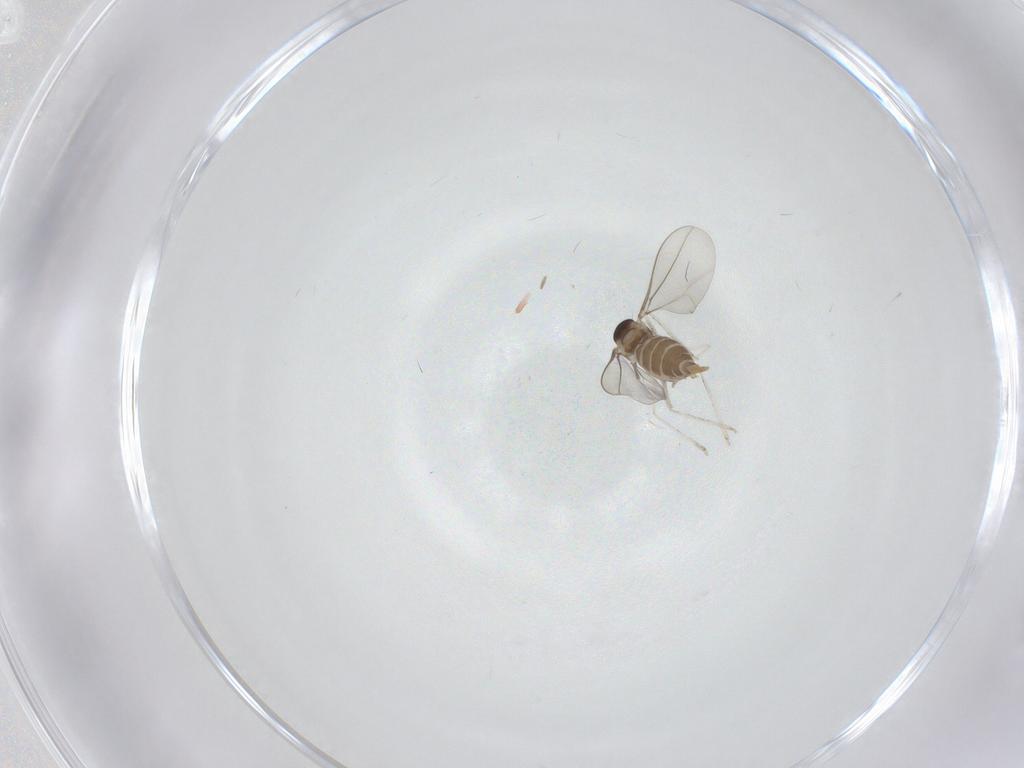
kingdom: Animalia
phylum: Arthropoda
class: Insecta
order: Diptera
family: Cecidomyiidae
